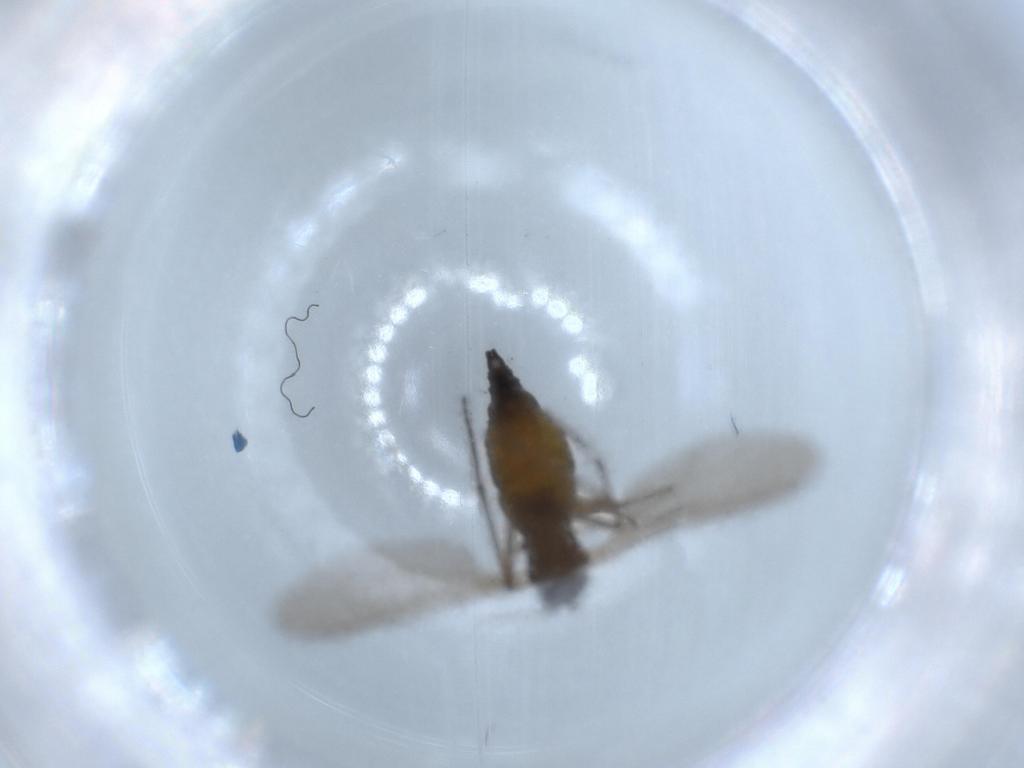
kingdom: Animalia
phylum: Arthropoda
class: Insecta
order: Diptera
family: Sciaridae
